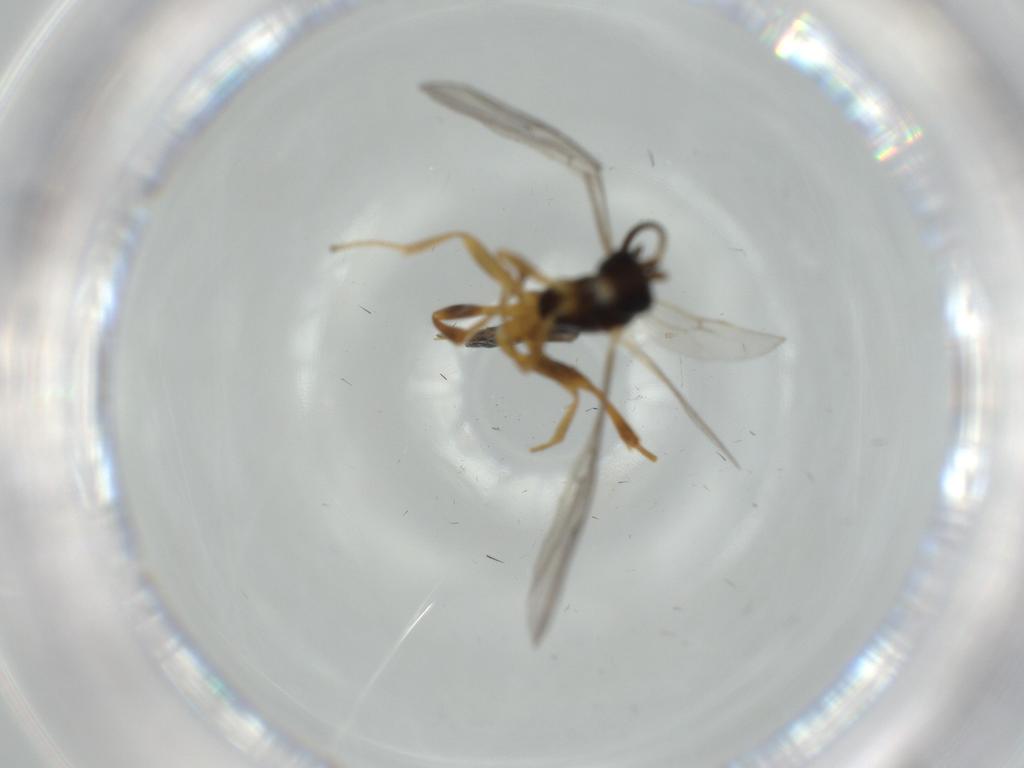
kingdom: Animalia
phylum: Arthropoda
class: Insecta
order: Hymenoptera
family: Ichneumonidae
